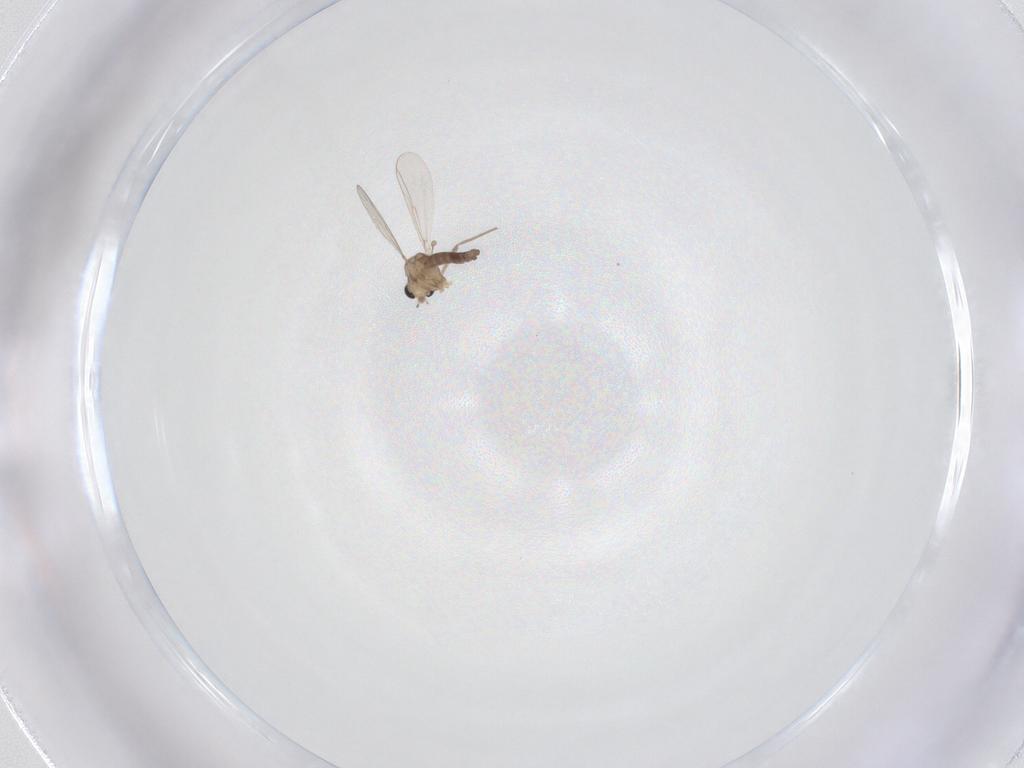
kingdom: Animalia
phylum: Arthropoda
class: Insecta
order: Diptera
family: Chironomidae
